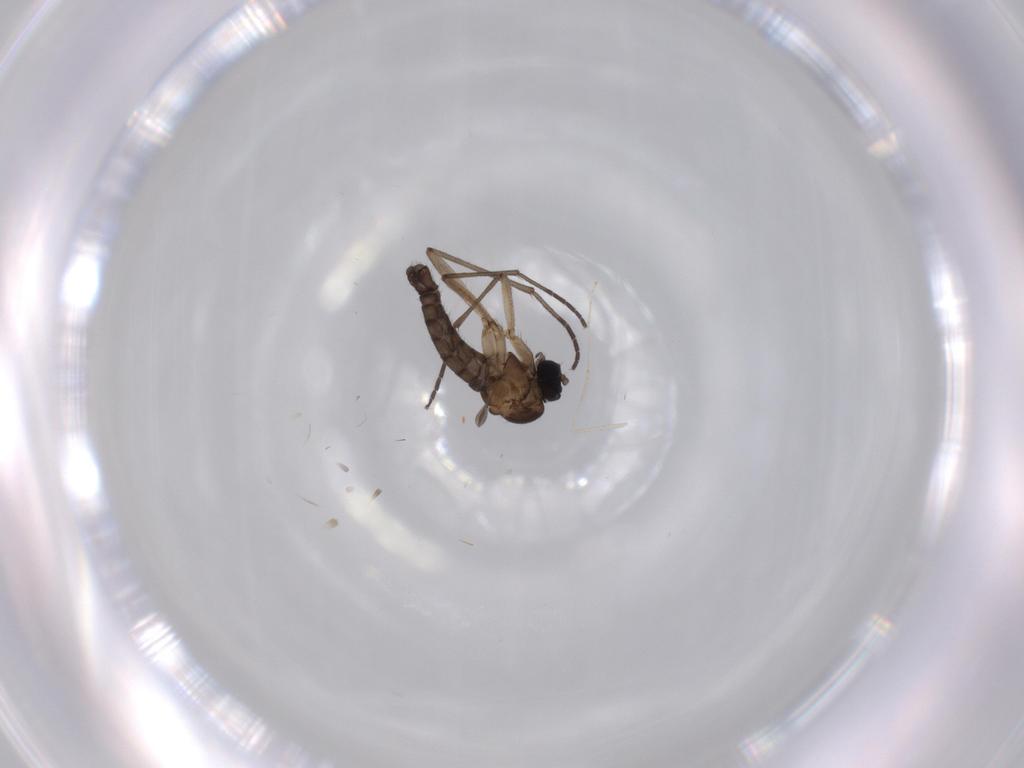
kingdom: Animalia
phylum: Arthropoda
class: Insecta
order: Diptera
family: Sciaridae
